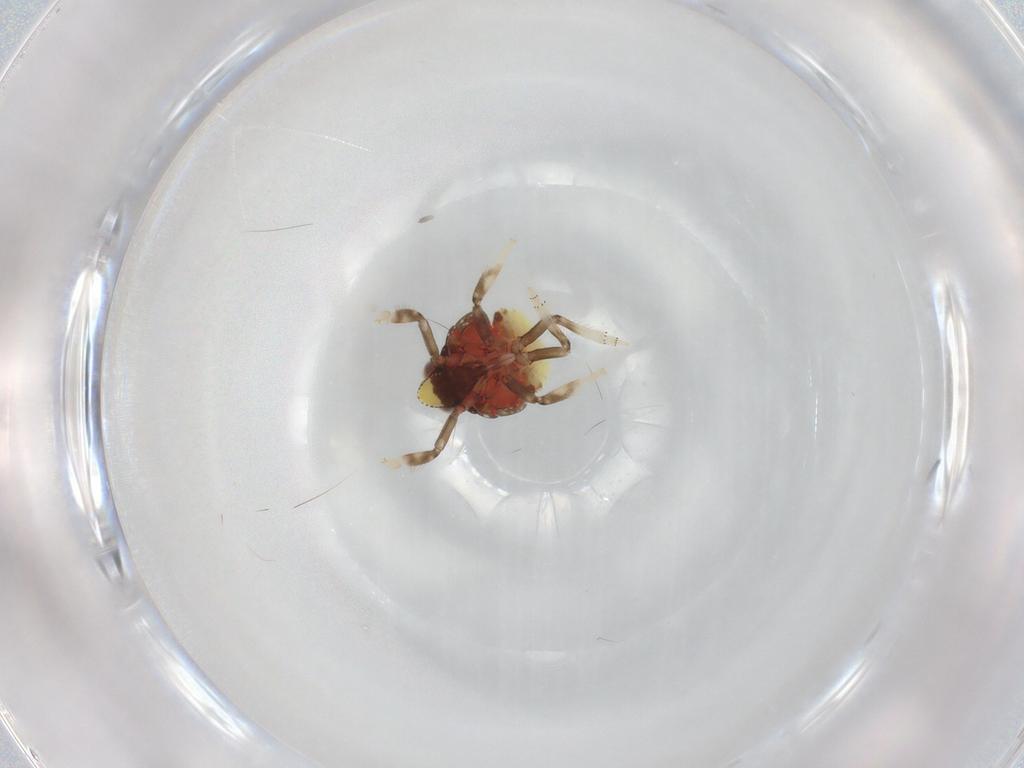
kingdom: Animalia
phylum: Arthropoda
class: Insecta
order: Hemiptera
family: Issidae
